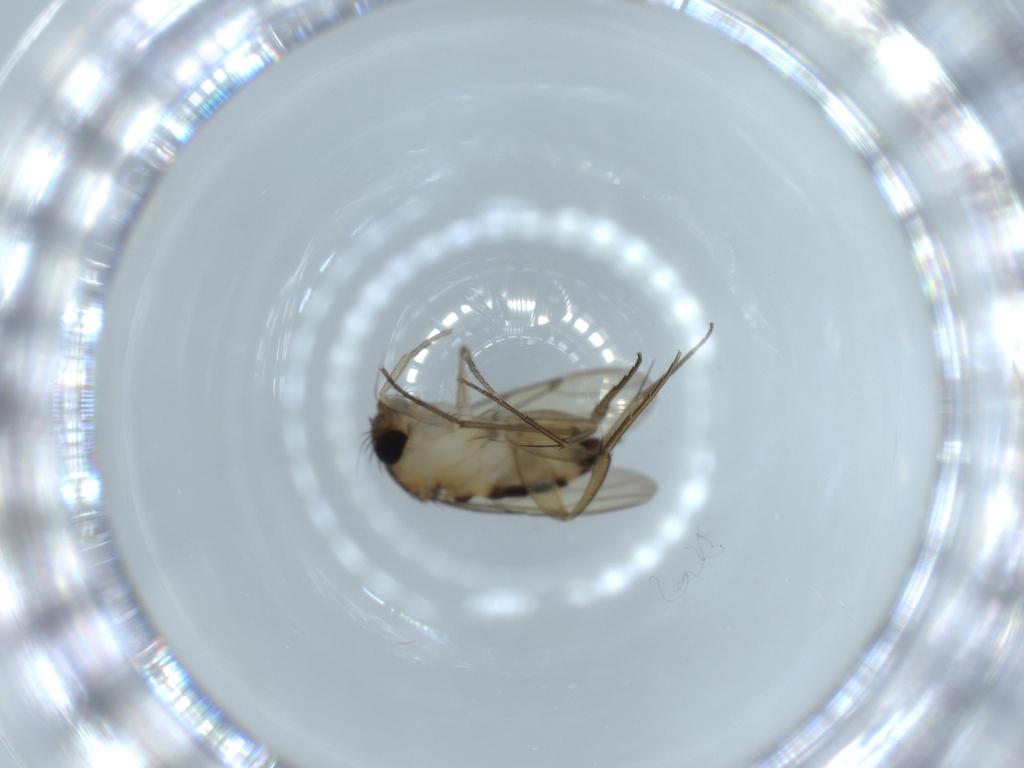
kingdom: Animalia
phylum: Arthropoda
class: Insecta
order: Diptera
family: Ceratopogonidae
